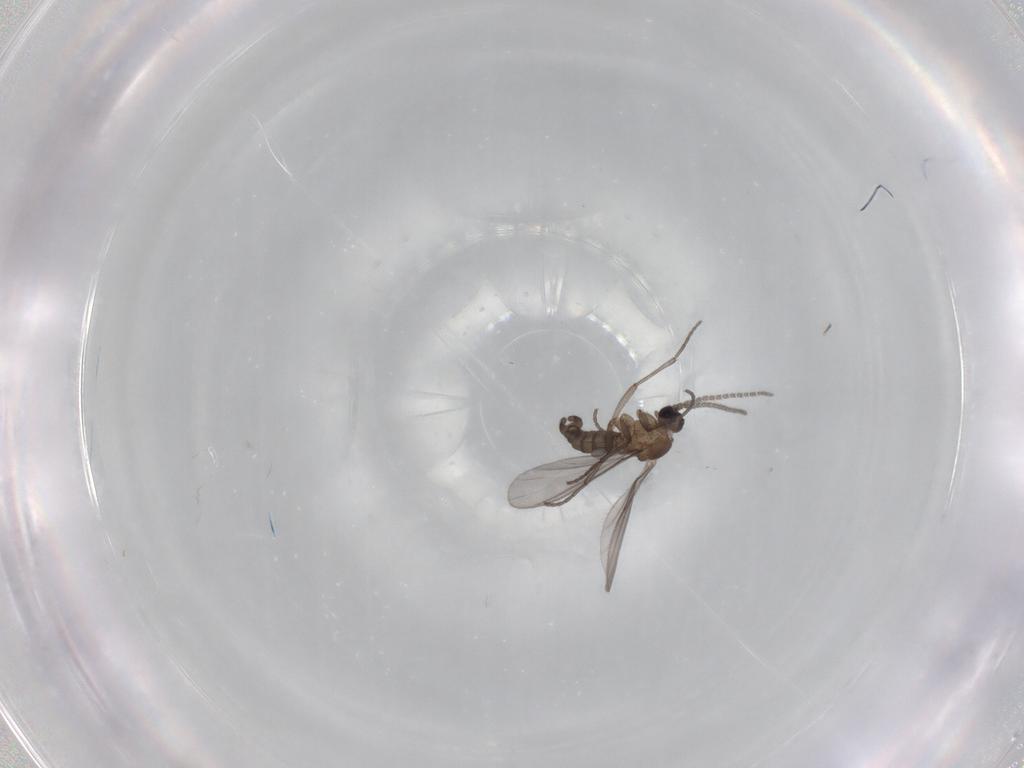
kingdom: Animalia
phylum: Arthropoda
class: Insecta
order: Diptera
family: Sciaridae
